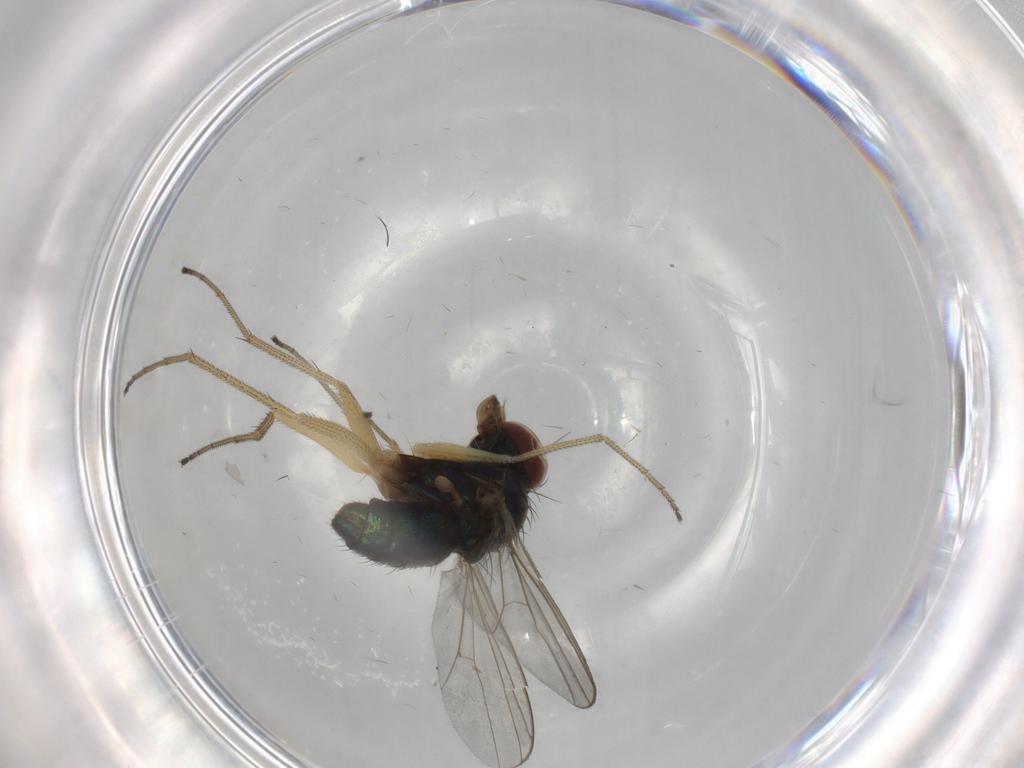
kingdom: Animalia
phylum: Arthropoda
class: Insecta
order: Diptera
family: Dolichopodidae
